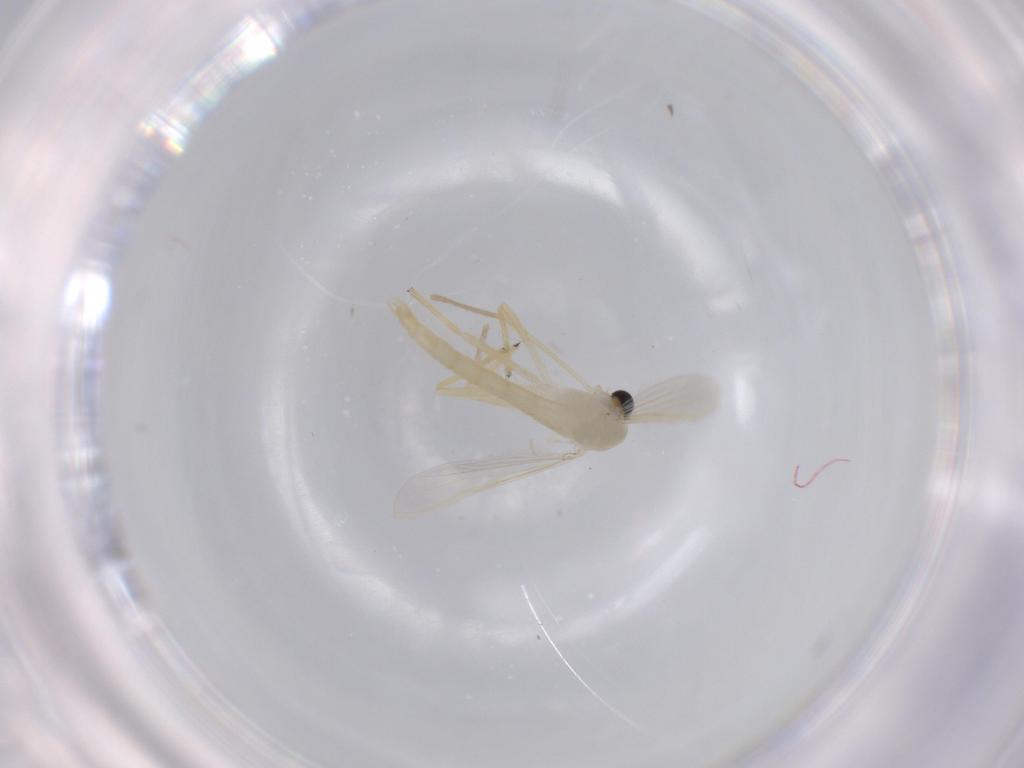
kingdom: Animalia
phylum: Arthropoda
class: Insecta
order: Diptera
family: Chironomidae
